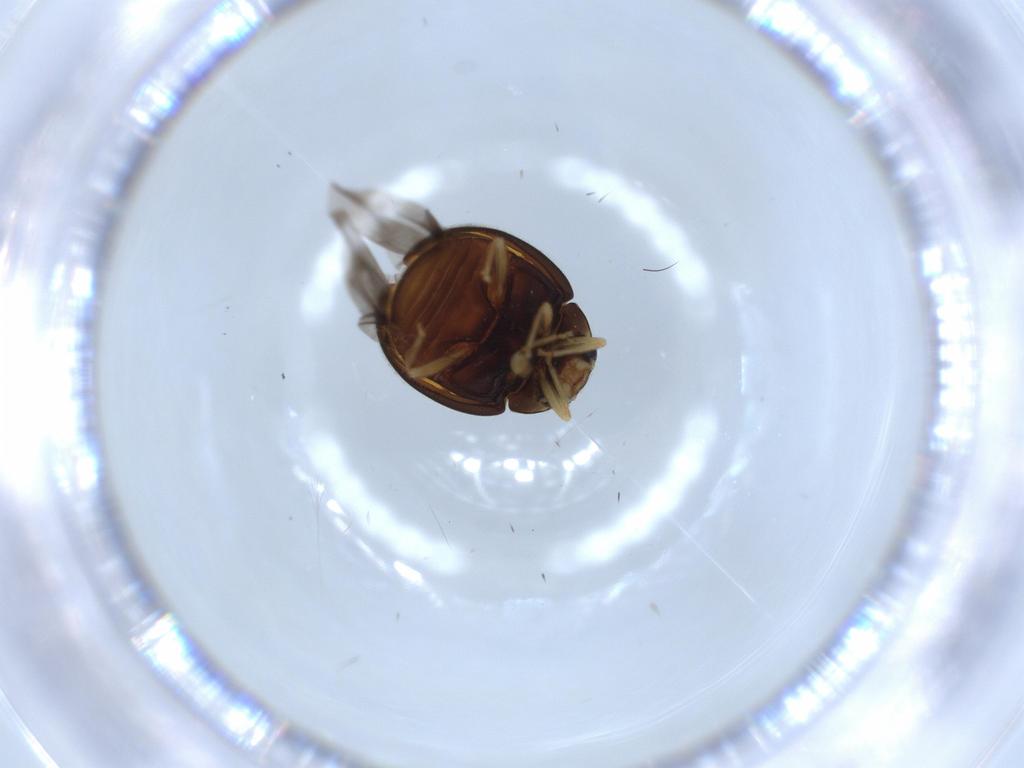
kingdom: Animalia
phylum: Arthropoda
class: Insecta
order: Coleoptera
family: Coccinellidae
